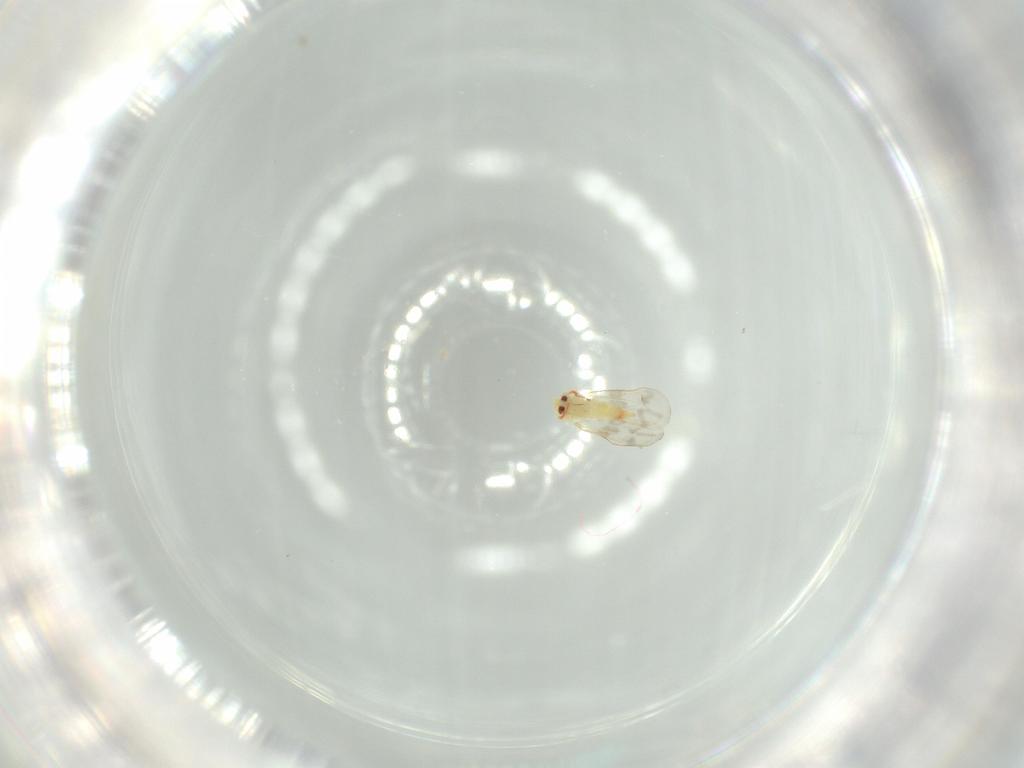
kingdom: Animalia
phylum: Arthropoda
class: Insecta
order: Hemiptera
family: Aleyrodidae
